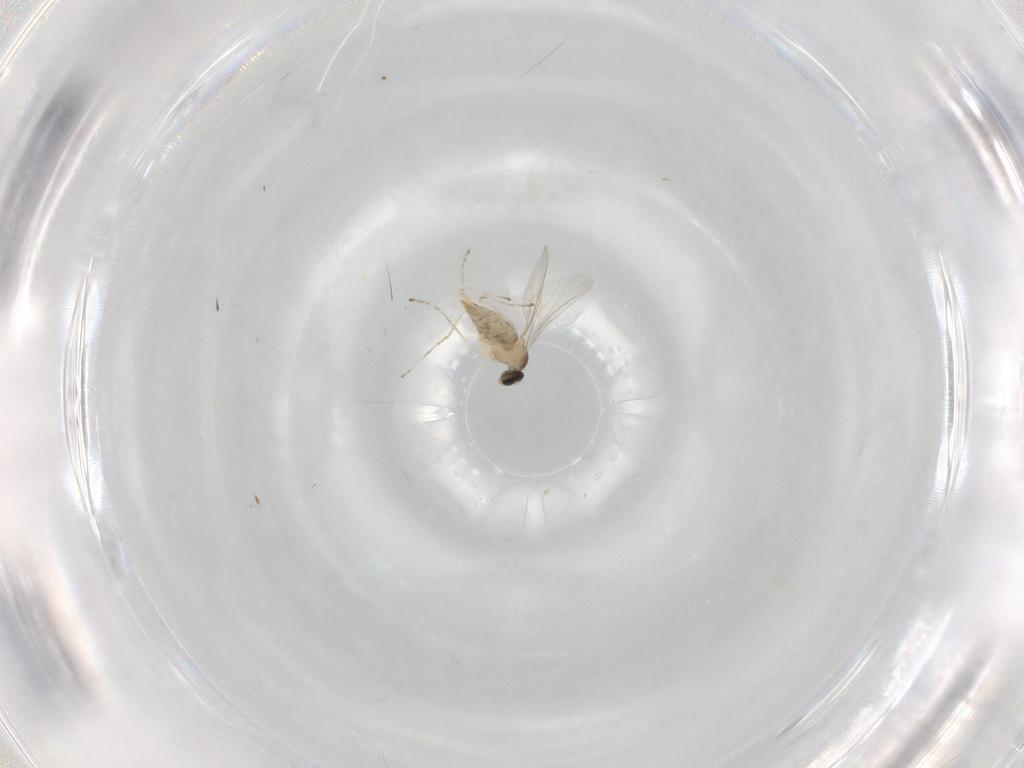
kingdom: Animalia
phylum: Arthropoda
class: Insecta
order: Diptera
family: Cecidomyiidae
